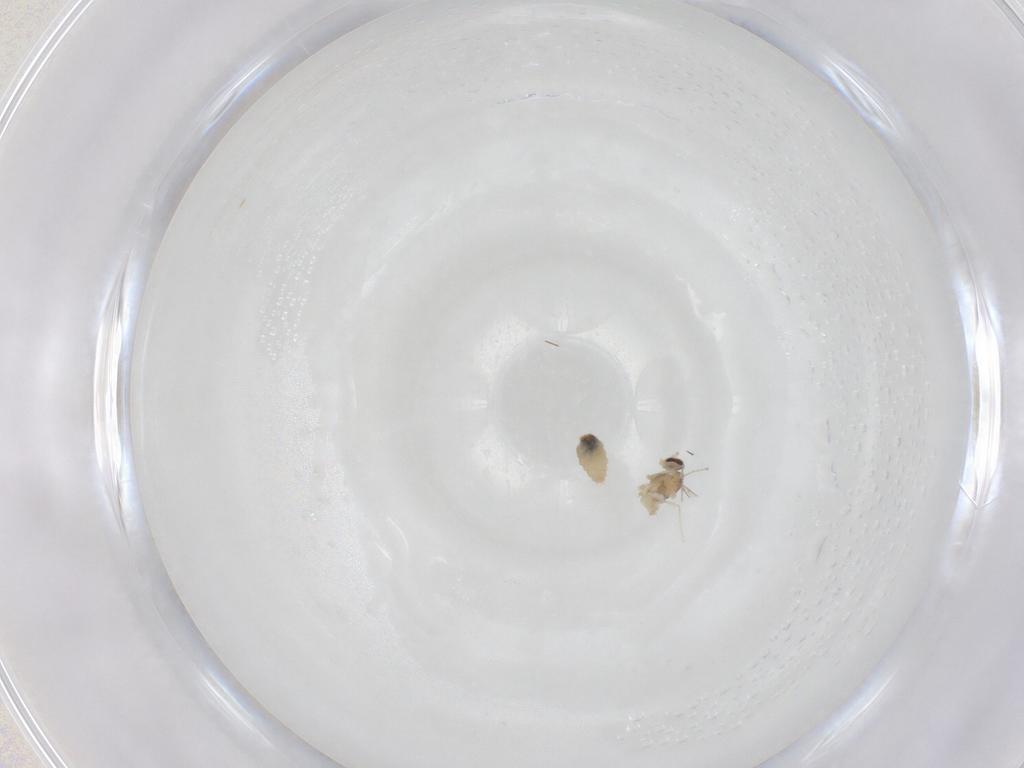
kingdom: Animalia
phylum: Arthropoda
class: Insecta
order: Diptera
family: Cecidomyiidae
